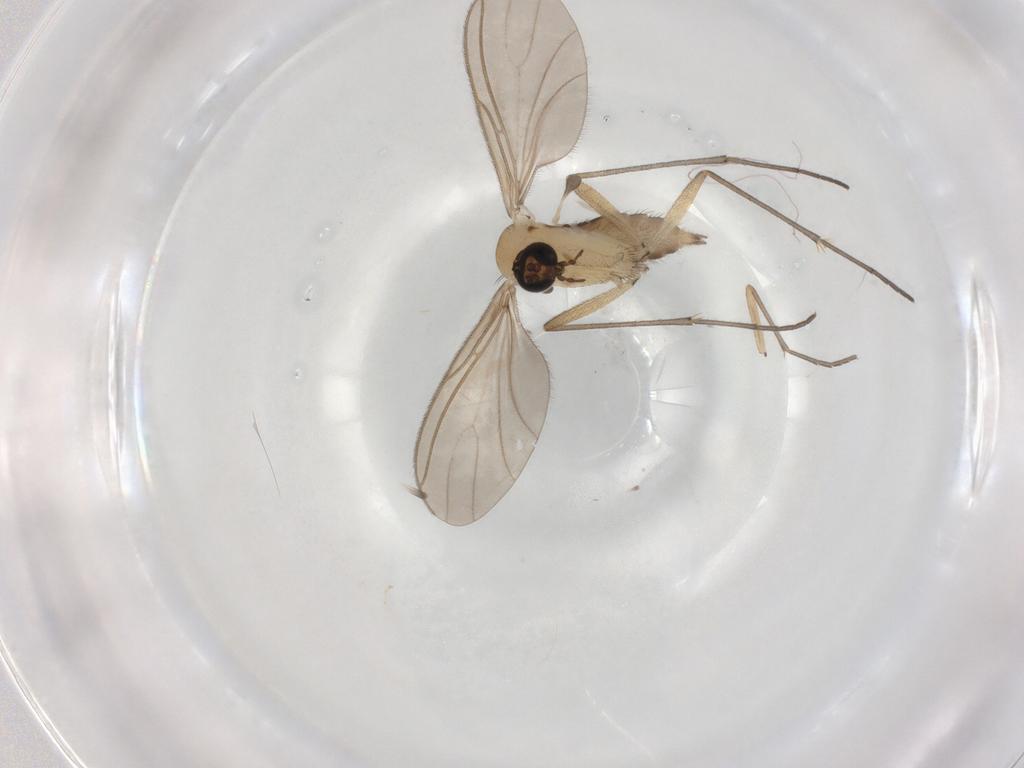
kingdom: Animalia
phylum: Arthropoda
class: Insecta
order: Diptera
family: Sciaridae
